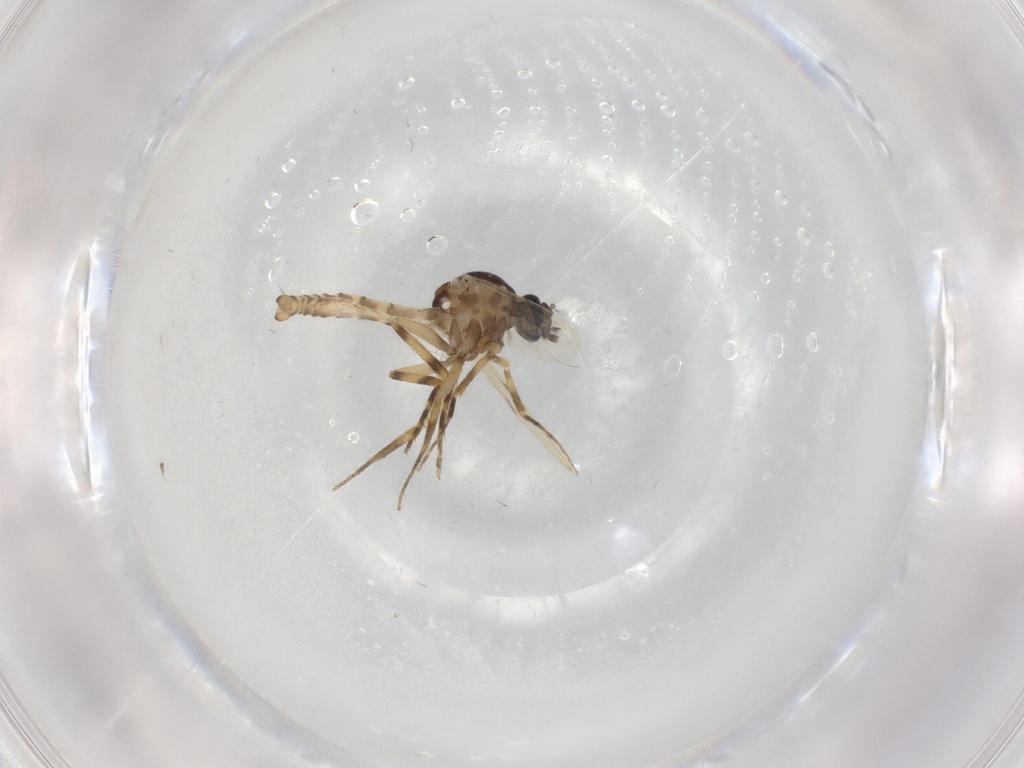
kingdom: Animalia
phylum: Arthropoda
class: Insecta
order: Diptera
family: Ceratopogonidae
